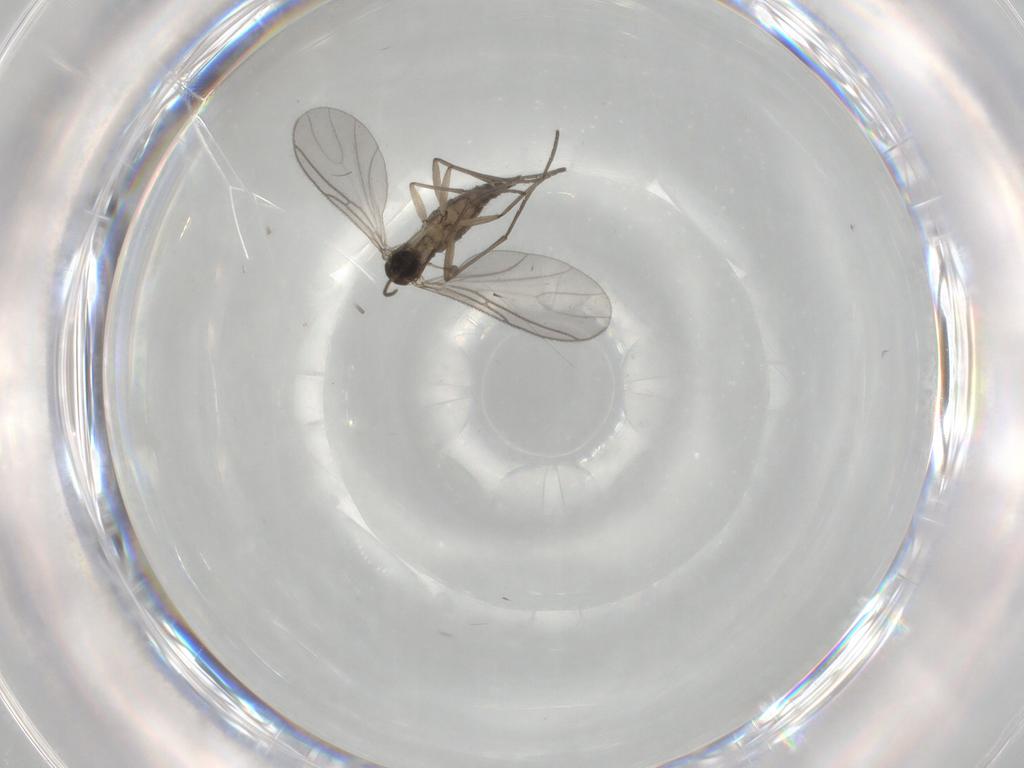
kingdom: Animalia
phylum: Arthropoda
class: Insecta
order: Diptera
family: Sciaridae
